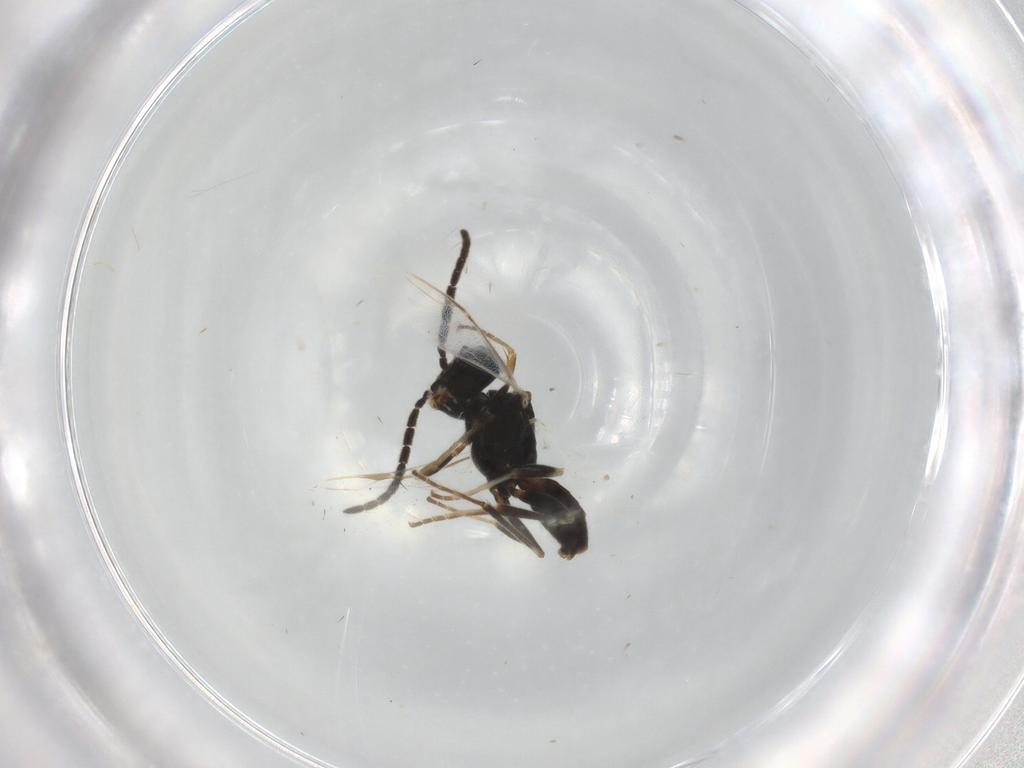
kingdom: Animalia
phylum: Arthropoda
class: Insecta
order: Hymenoptera
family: Dryinidae
